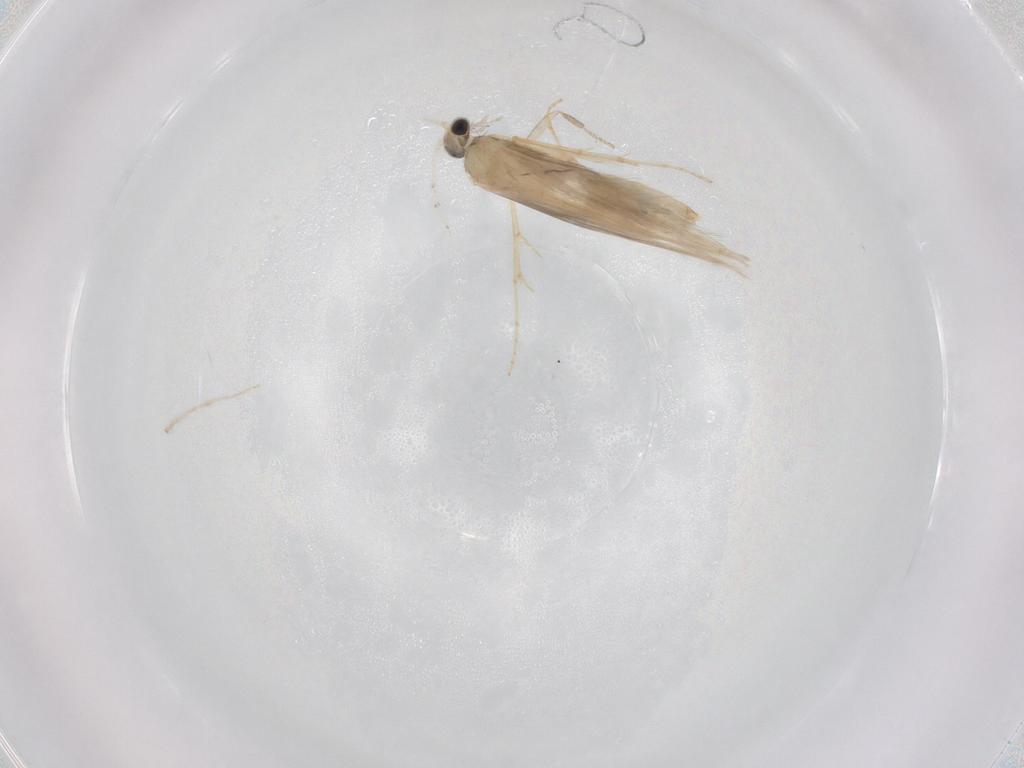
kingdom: Animalia
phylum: Arthropoda
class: Insecta
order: Trichoptera
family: Hydroptilidae
